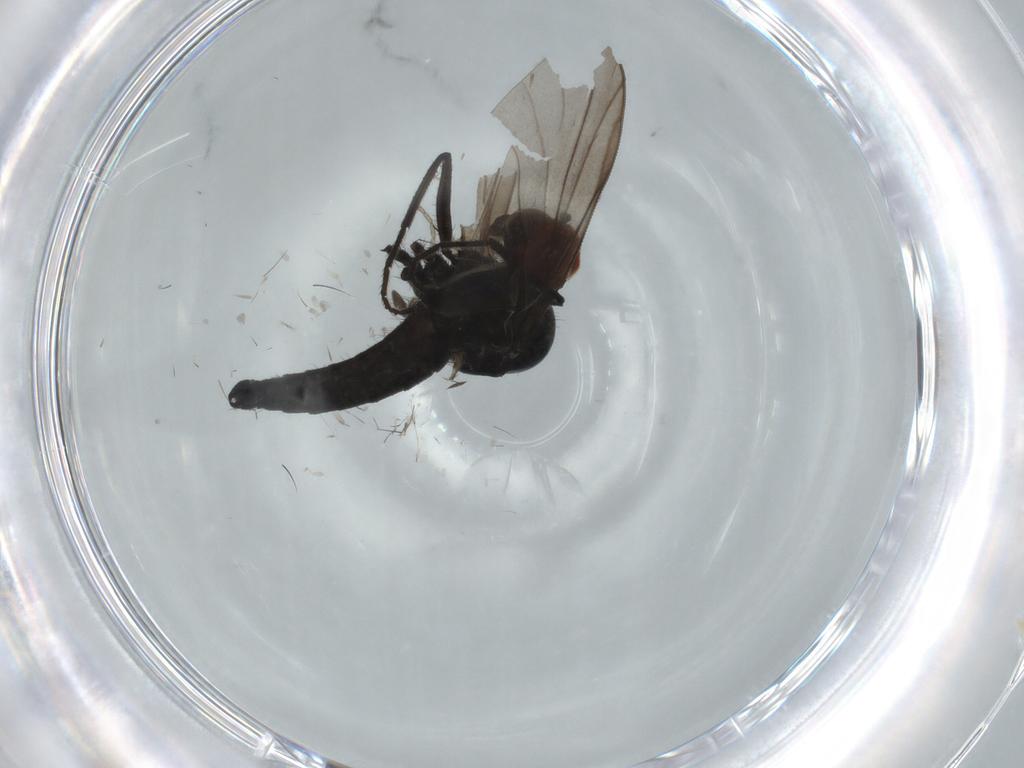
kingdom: Animalia
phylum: Arthropoda
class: Insecta
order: Diptera
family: Hybotidae
